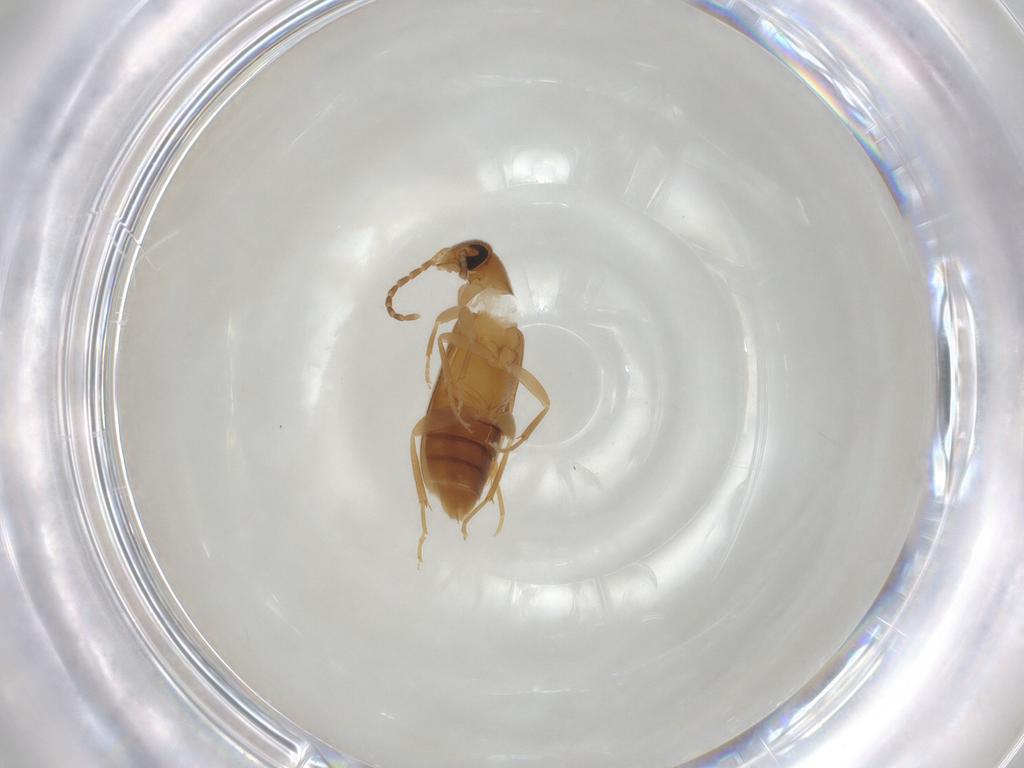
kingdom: Animalia
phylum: Arthropoda
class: Insecta
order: Coleoptera
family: Scraptiidae
